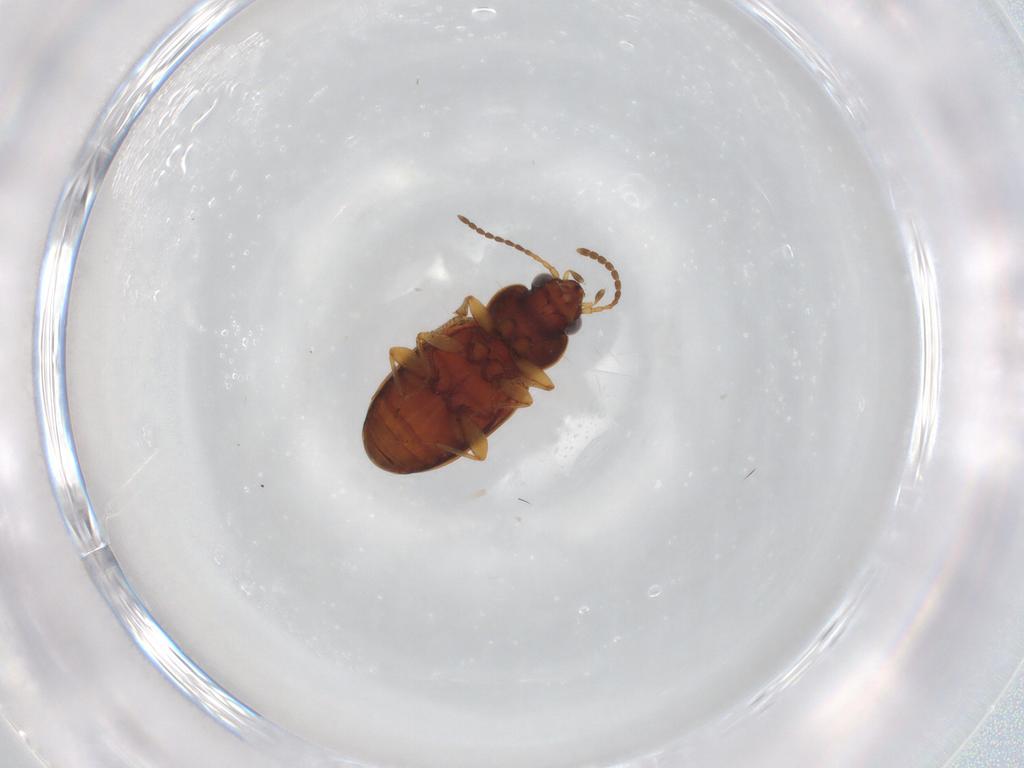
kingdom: Animalia
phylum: Arthropoda
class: Insecta
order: Coleoptera
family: Carabidae
